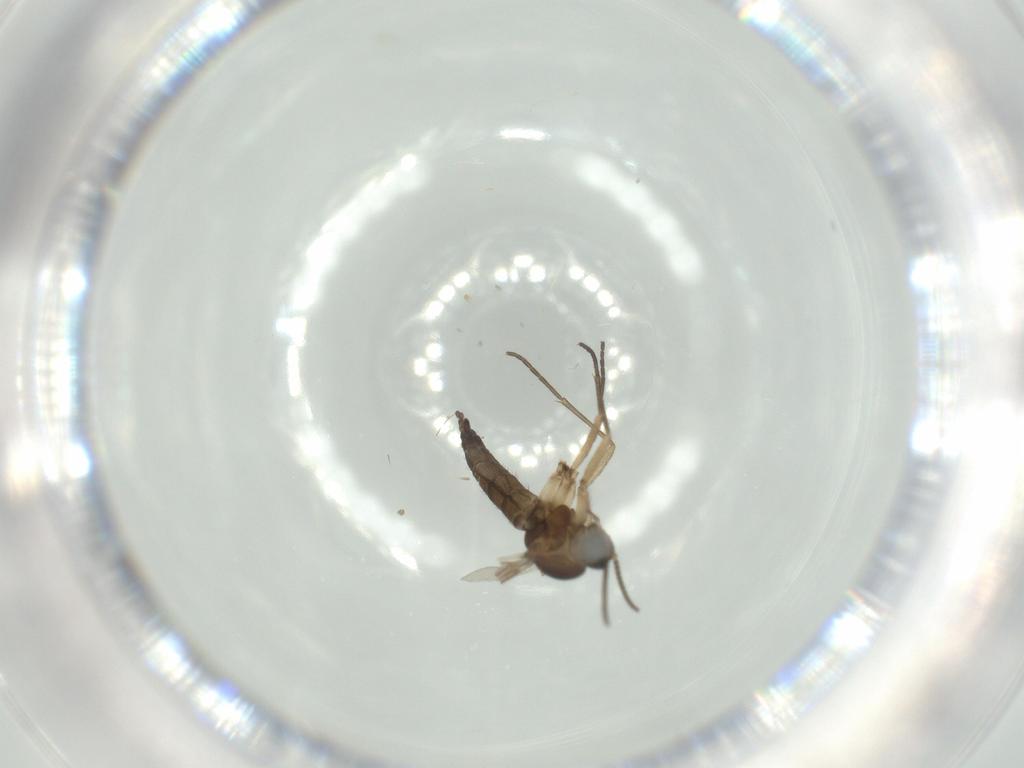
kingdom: Animalia
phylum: Arthropoda
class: Insecta
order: Diptera
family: Sciaridae
